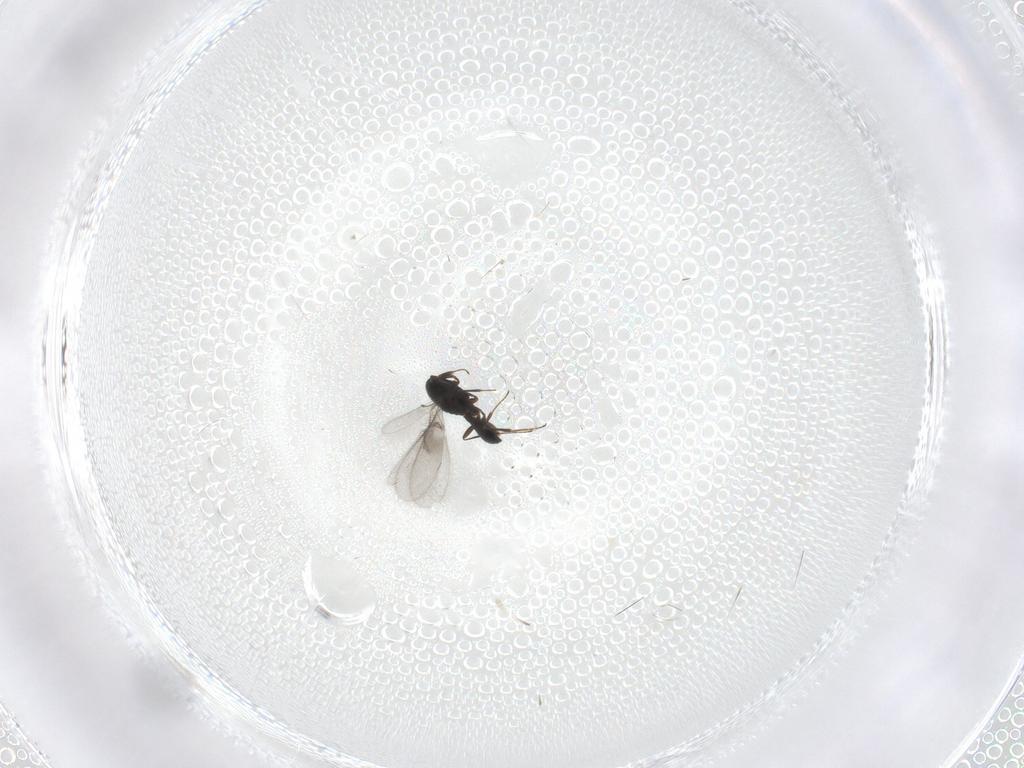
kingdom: Animalia
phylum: Arthropoda
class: Insecta
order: Hymenoptera
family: Scelionidae
